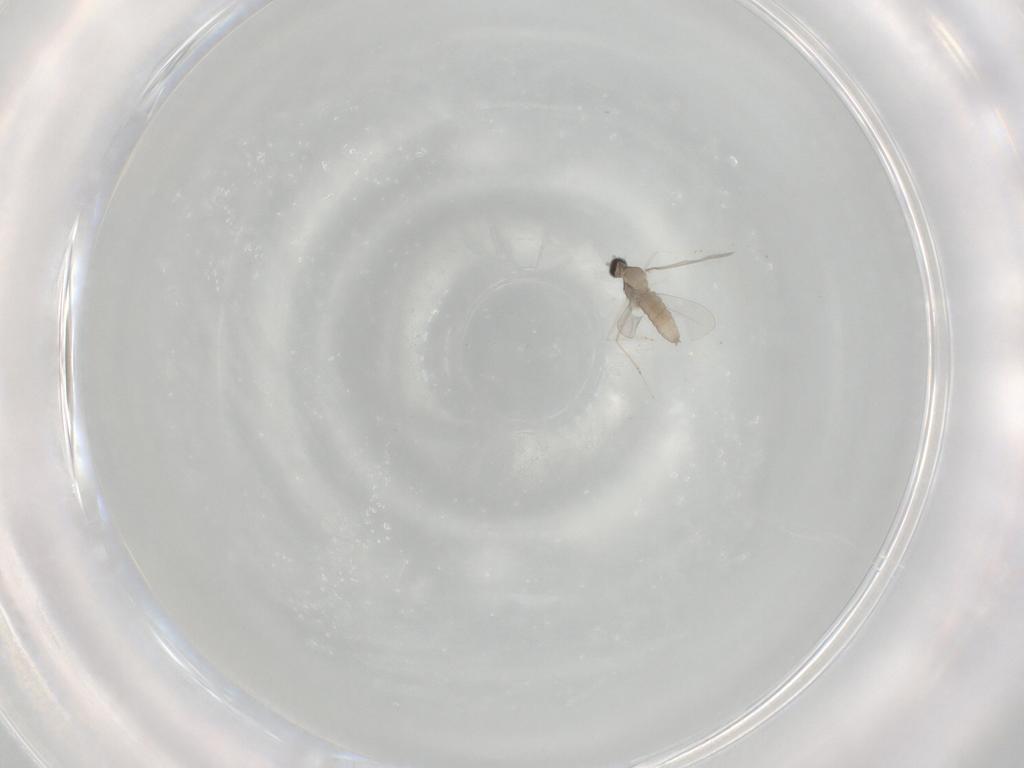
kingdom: Animalia
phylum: Arthropoda
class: Insecta
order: Diptera
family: Cecidomyiidae
